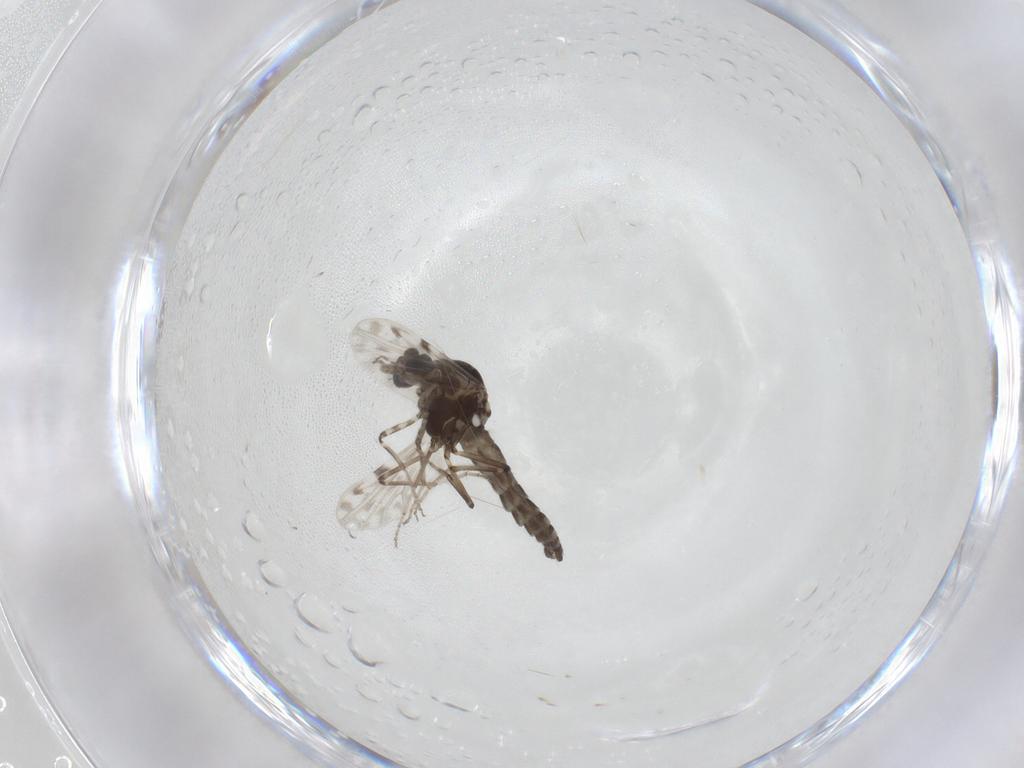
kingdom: Animalia
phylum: Arthropoda
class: Insecta
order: Diptera
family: Ceratopogonidae
